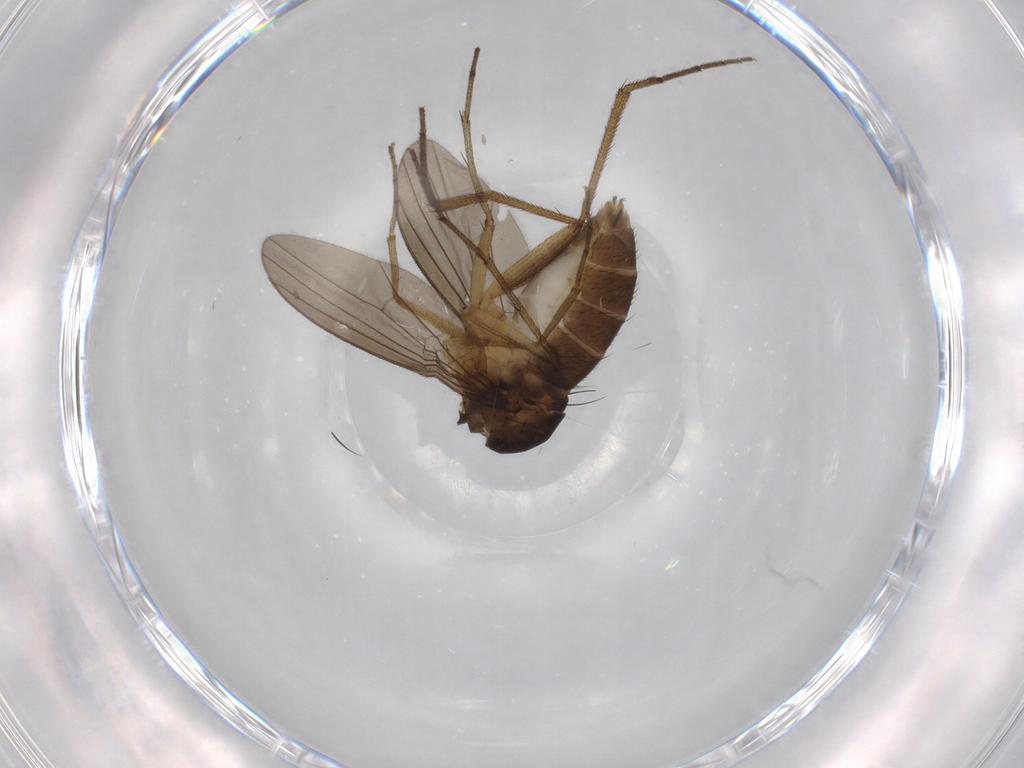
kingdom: Animalia
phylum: Arthropoda
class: Insecta
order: Diptera
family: Dolichopodidae
